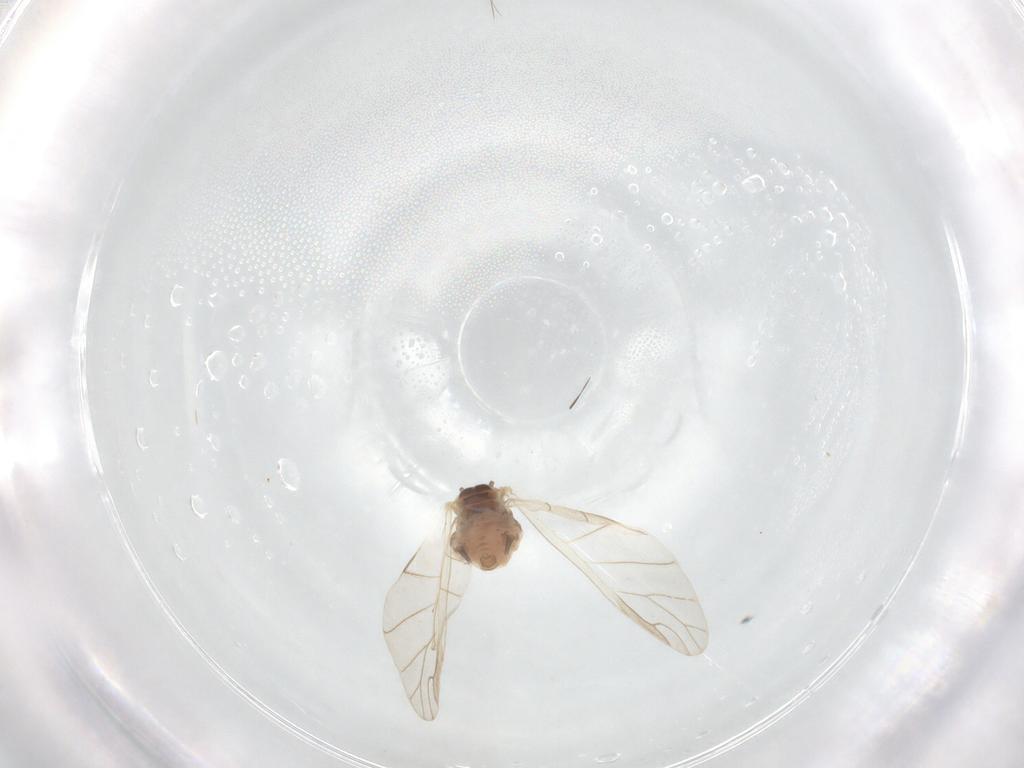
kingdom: Animalia
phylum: Arthropoda
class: Insecta
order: Hemiptera
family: Aphididae
